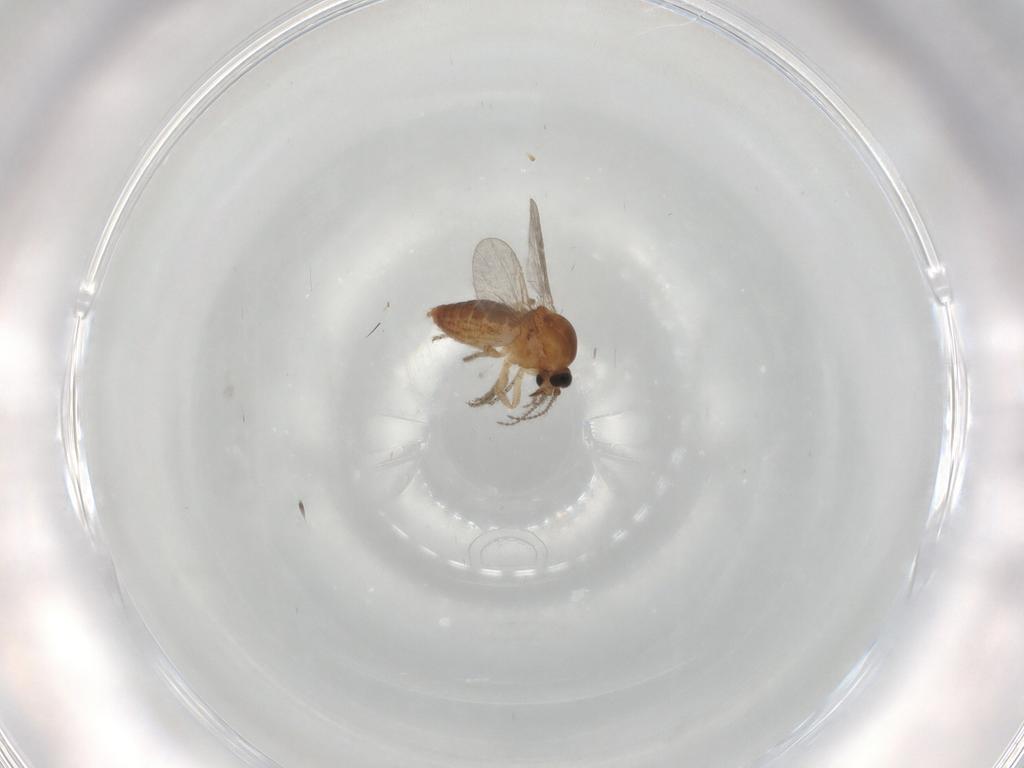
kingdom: Animalia
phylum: Arthropoda
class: Insecta
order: Diptera
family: Ceratopogonidae
